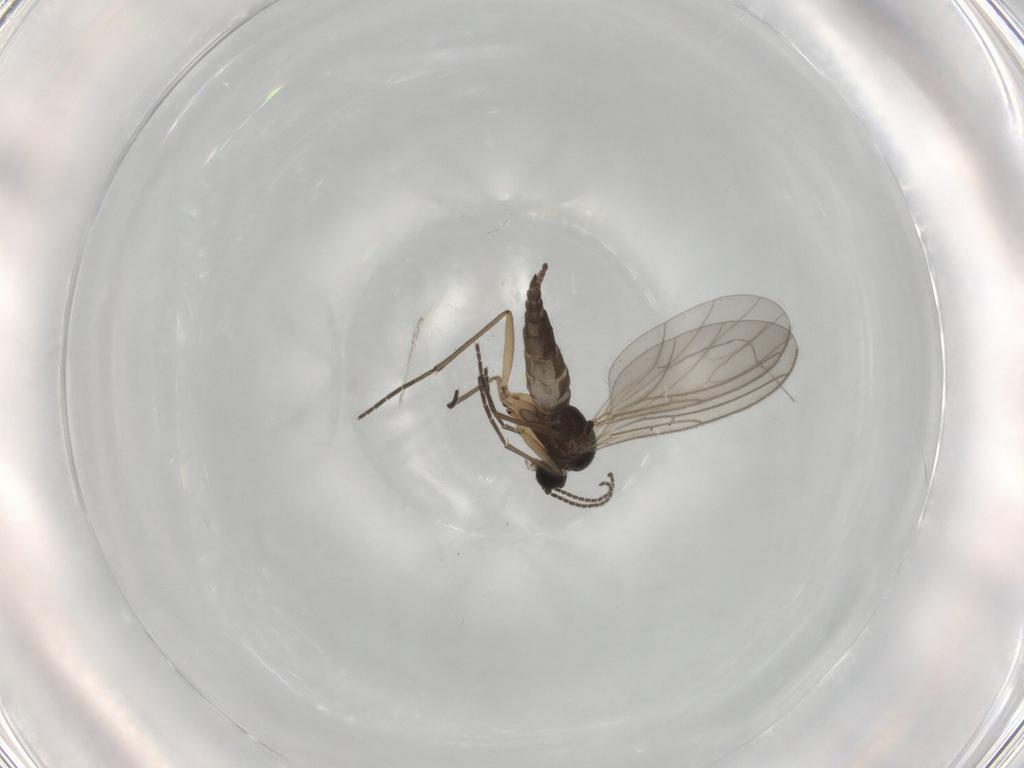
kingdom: Animalia
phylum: Arthropoda
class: Insecta
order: Diptera
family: Sciaridae
